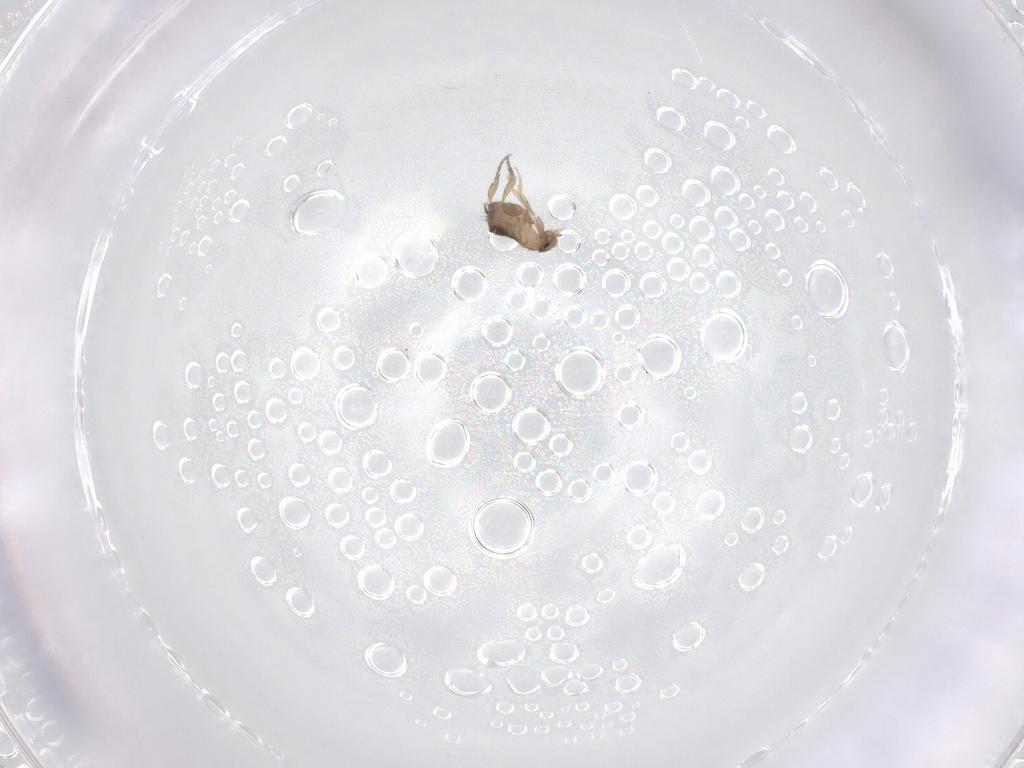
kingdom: Animalia
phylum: Arthropoda
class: Insecta
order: Diptera
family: Phoridae
